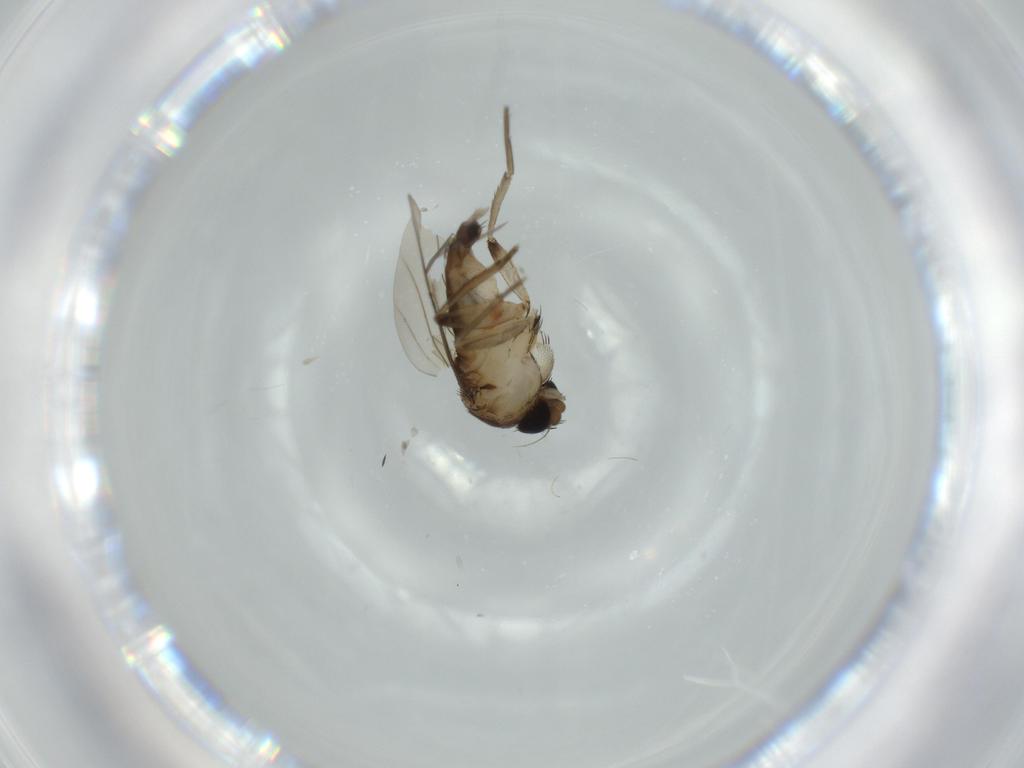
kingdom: Animalia
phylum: Arthropoda
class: Insecta
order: Diptera
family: Phoridae
